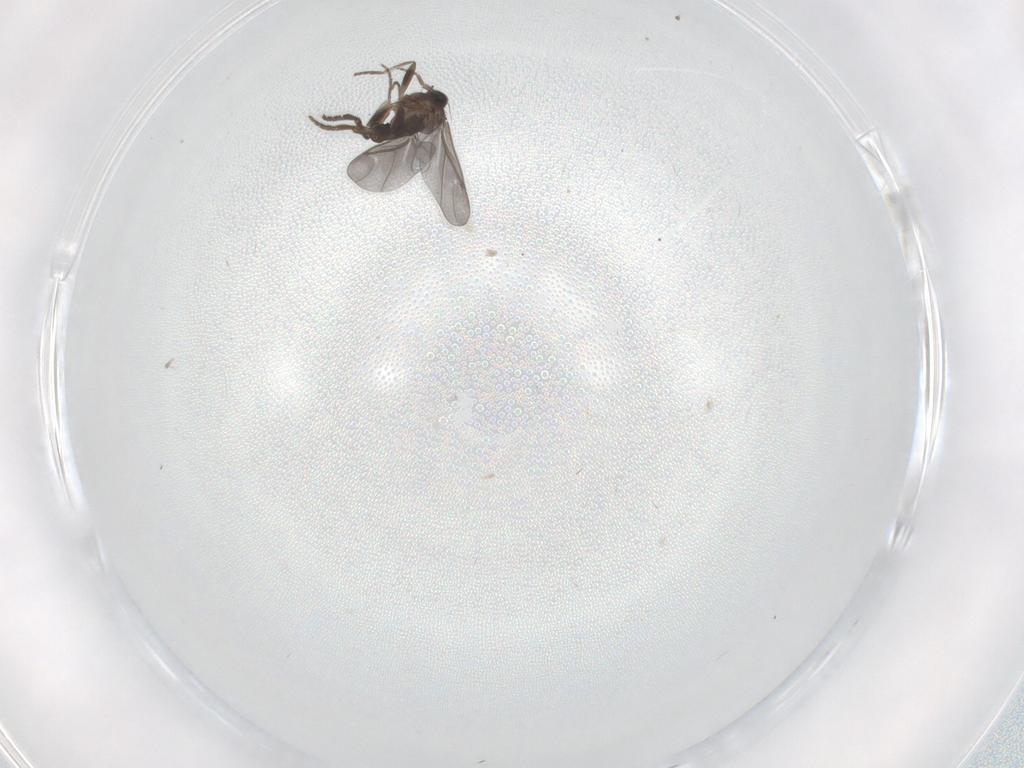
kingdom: Animalia
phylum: Arthropoda
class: Insecta
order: Diptera
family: Phoridae
